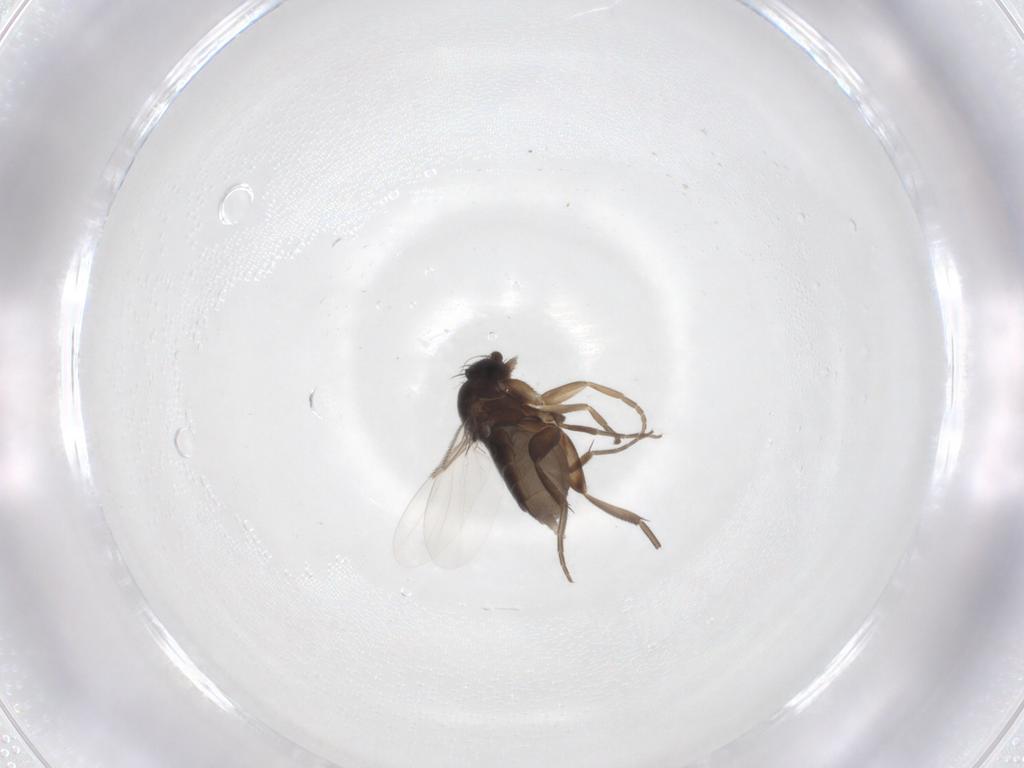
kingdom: Animalia
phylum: Arthropoda
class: Insecta
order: Diptera
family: Phoridae
